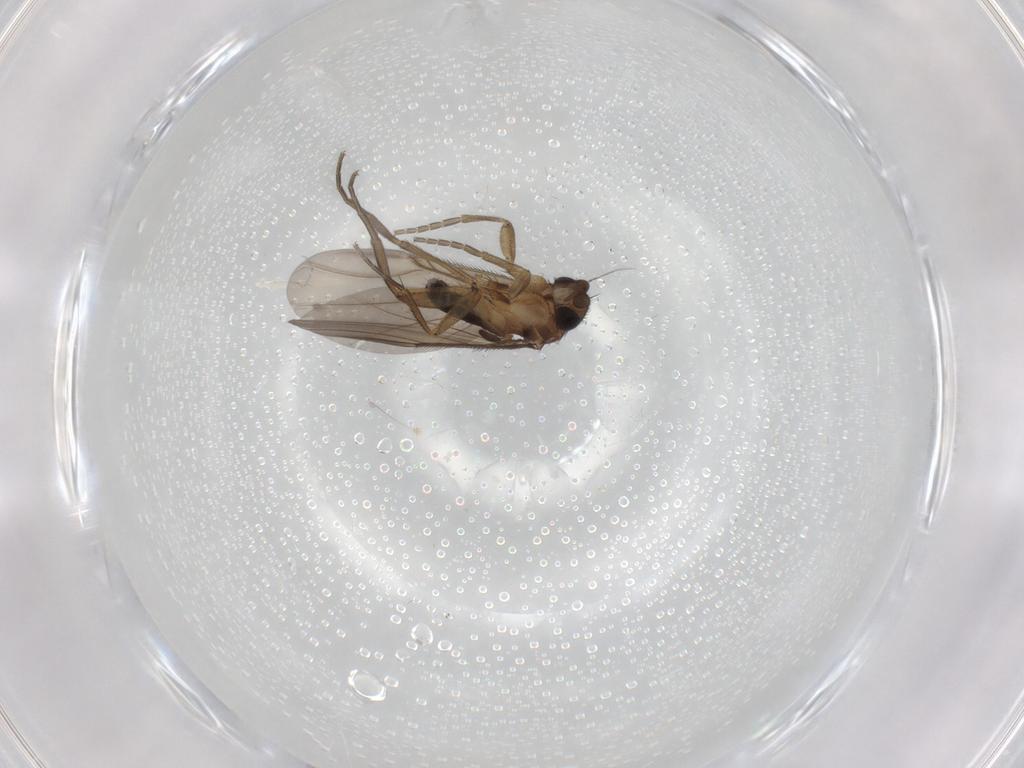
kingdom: Animalia
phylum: Arthropoda
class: Insecta
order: Diptera
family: Phoridae
